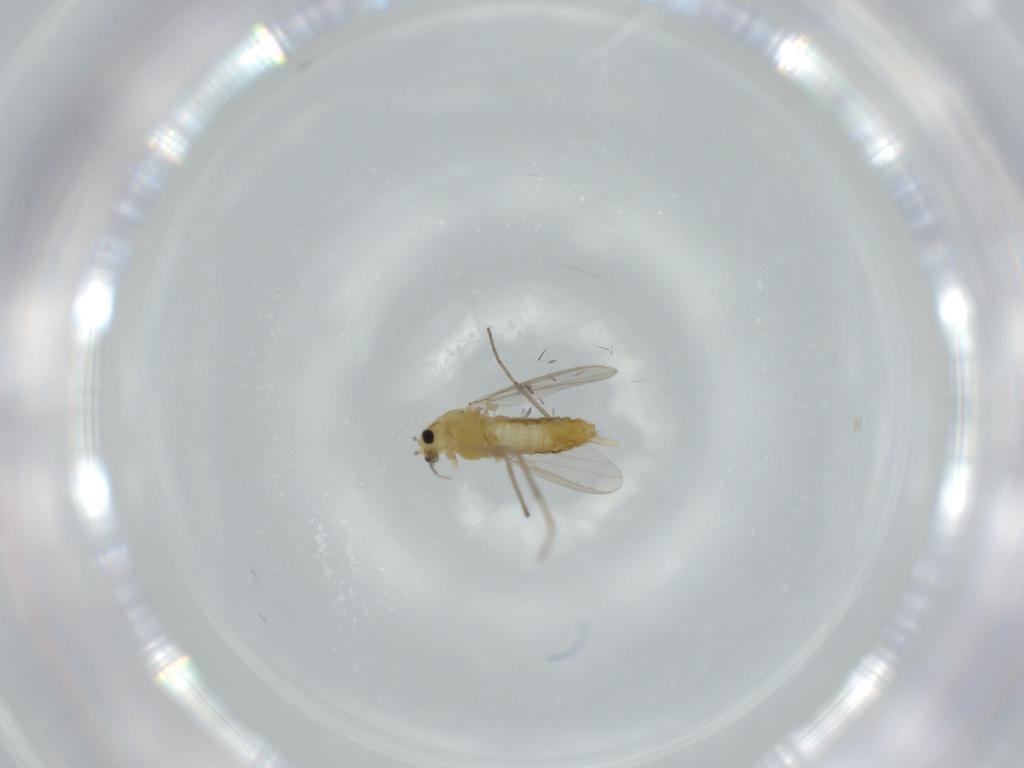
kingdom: Animalia
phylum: Arthropoda
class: Insecta
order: Diptera
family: Chironomidae
